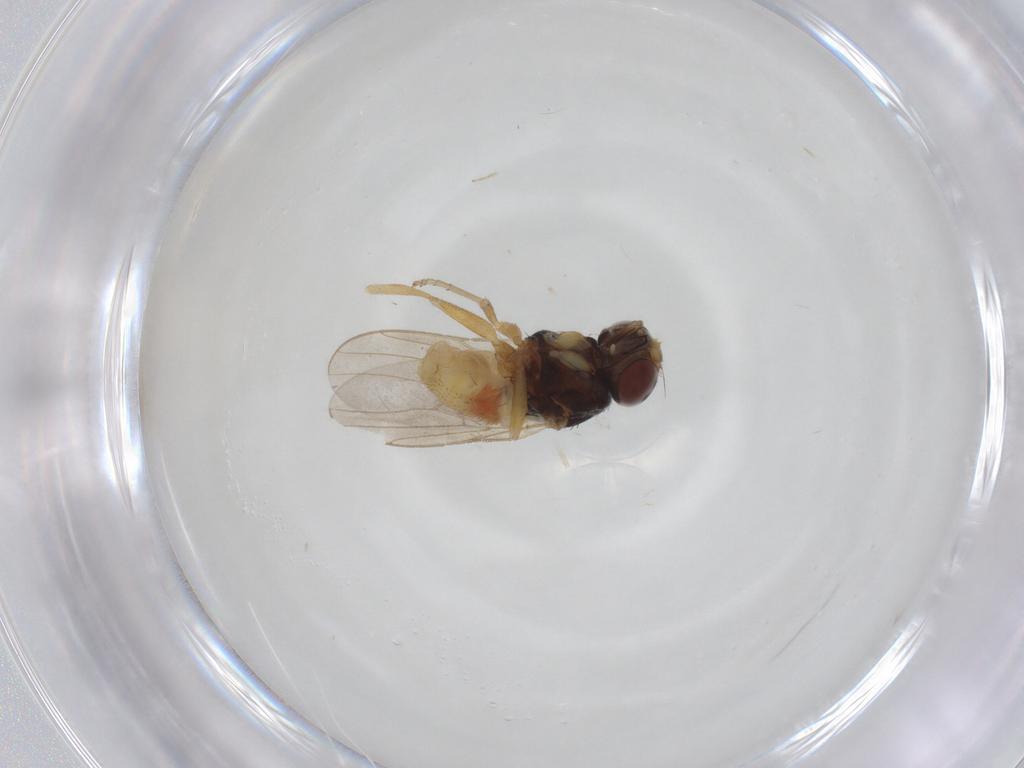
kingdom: Animalia
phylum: Arthropoda
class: Insecta
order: Diptera
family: Chloropidae
